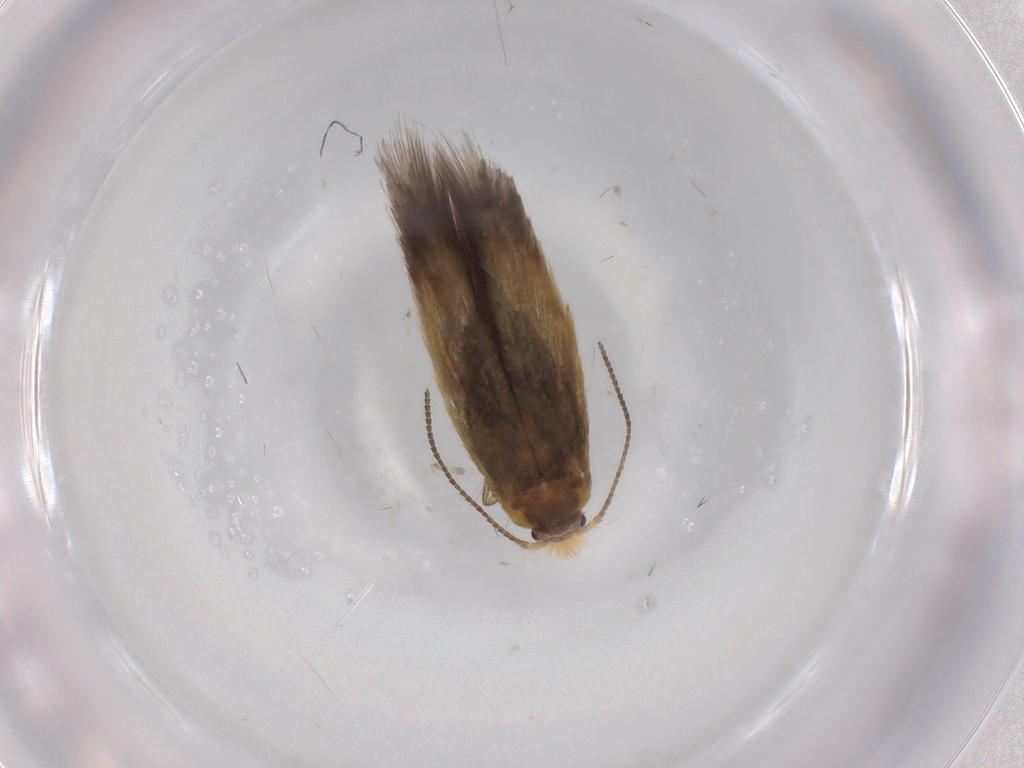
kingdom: Animalia
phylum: Arthropoda
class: Insecta
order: Lepidoptera
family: Nepticulidae
